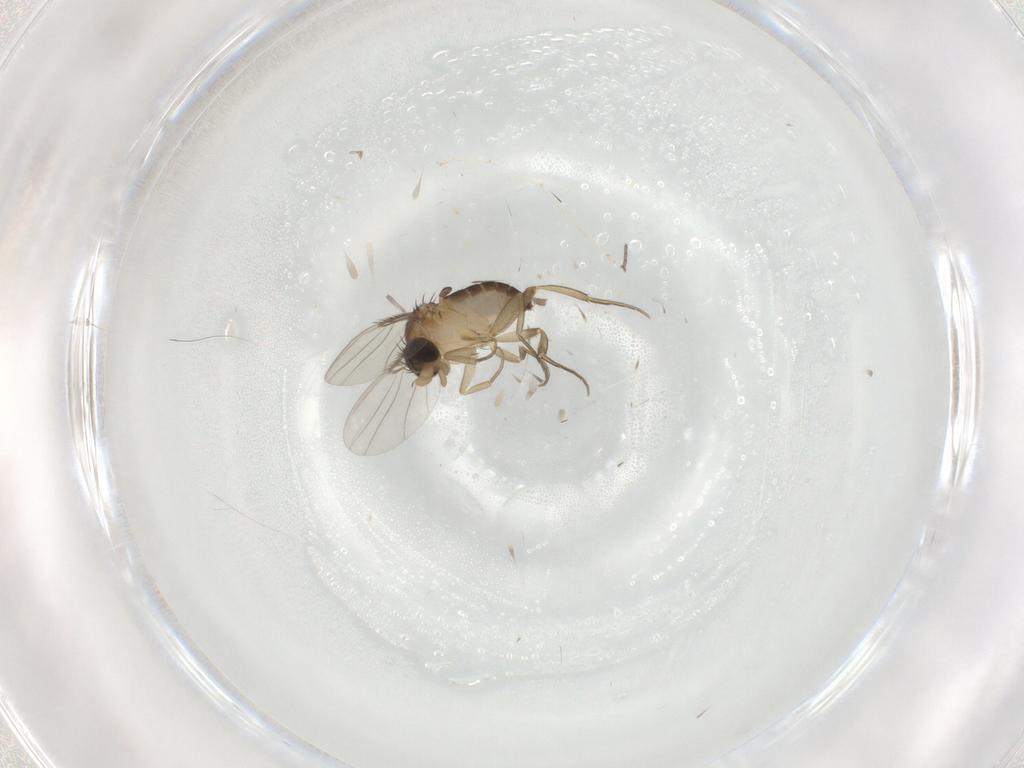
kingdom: Animalia
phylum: Arthropoda
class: Insecta
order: Diptera
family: Phoridae
